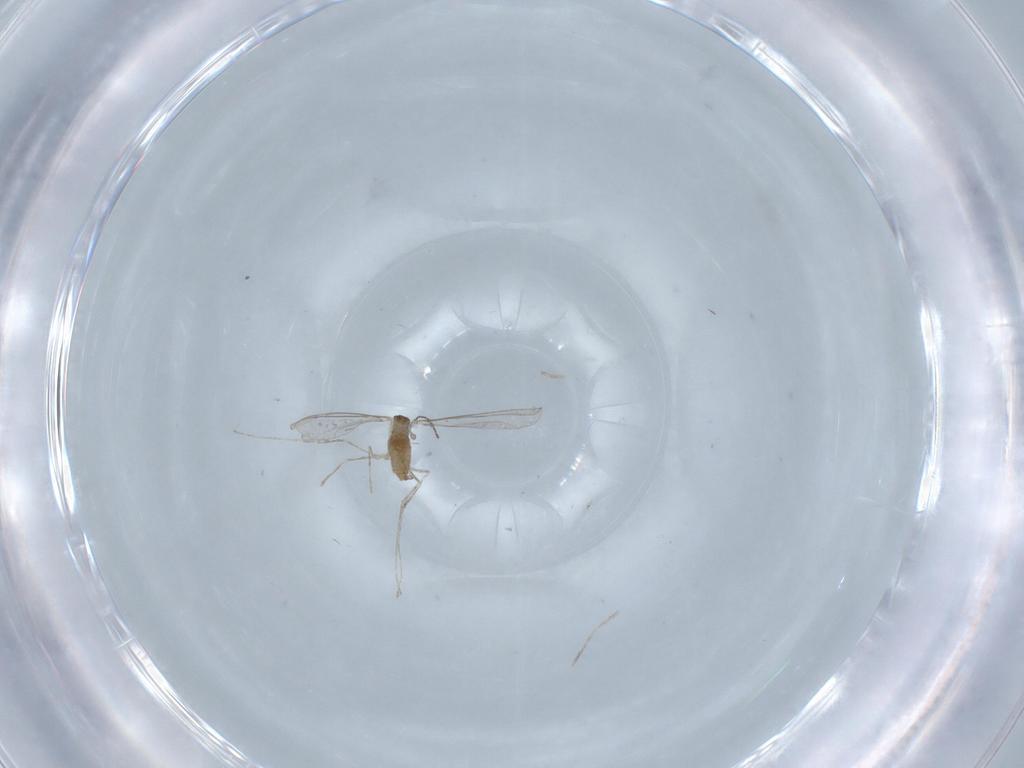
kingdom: Animalia
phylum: Arthropoda
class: Insecta
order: Diptera
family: Cecidomyiidae
